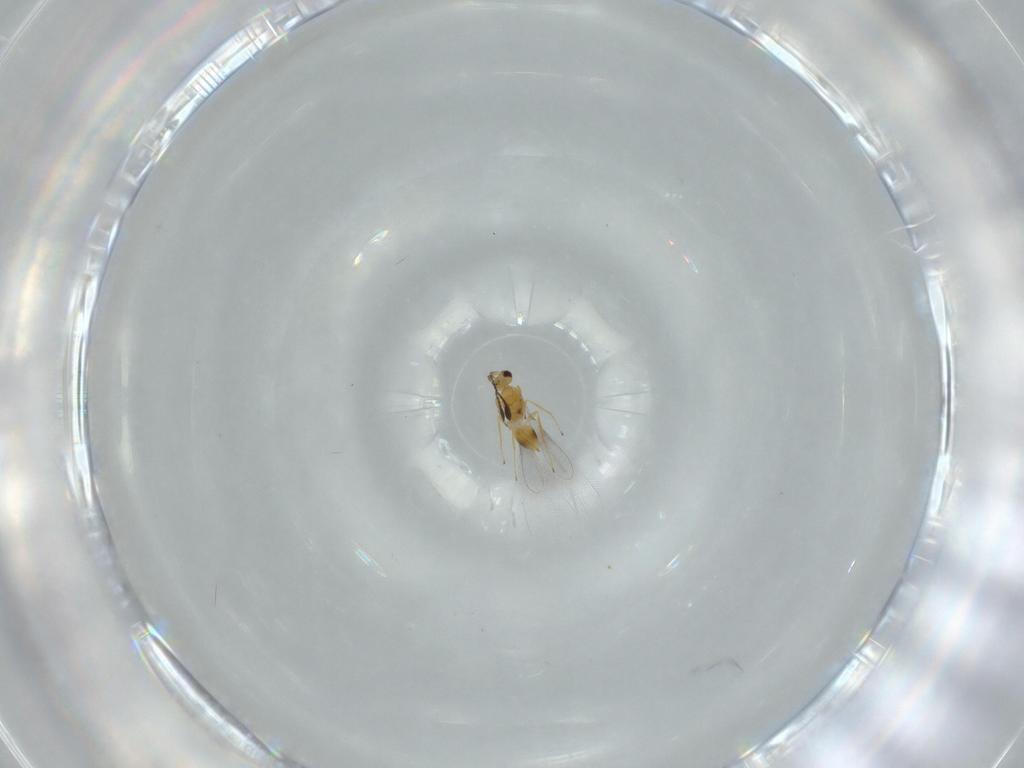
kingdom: Animalia
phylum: Arthropoda
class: Insecta
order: Hymenoptera
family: Mymaridae
